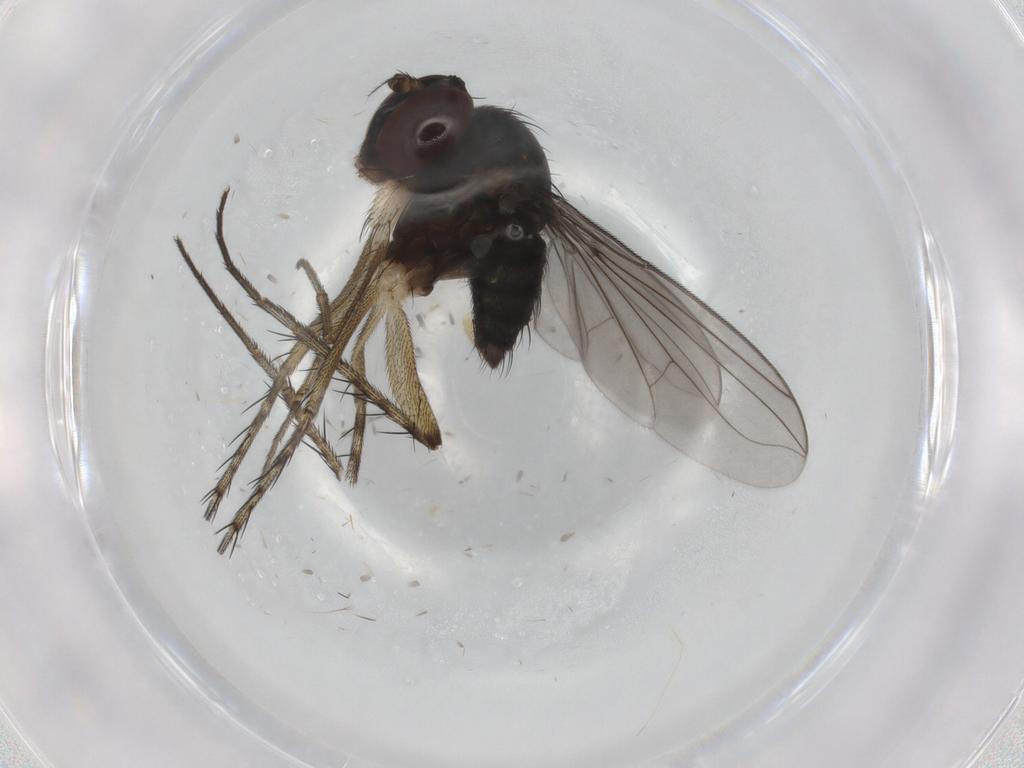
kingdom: Animalia
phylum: Arthropoda
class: Insecta
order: Diptera
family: Dolichopodidae
